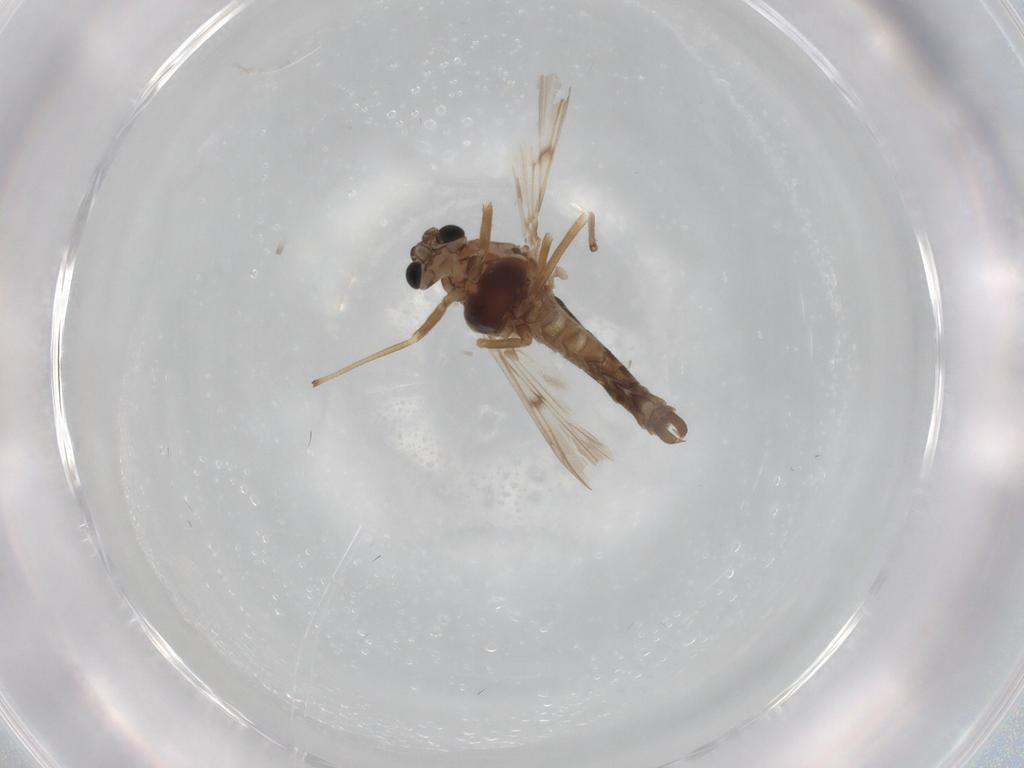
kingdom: Animalia
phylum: Arthropoda
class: Insecta
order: Diptera
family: Chironomidae
